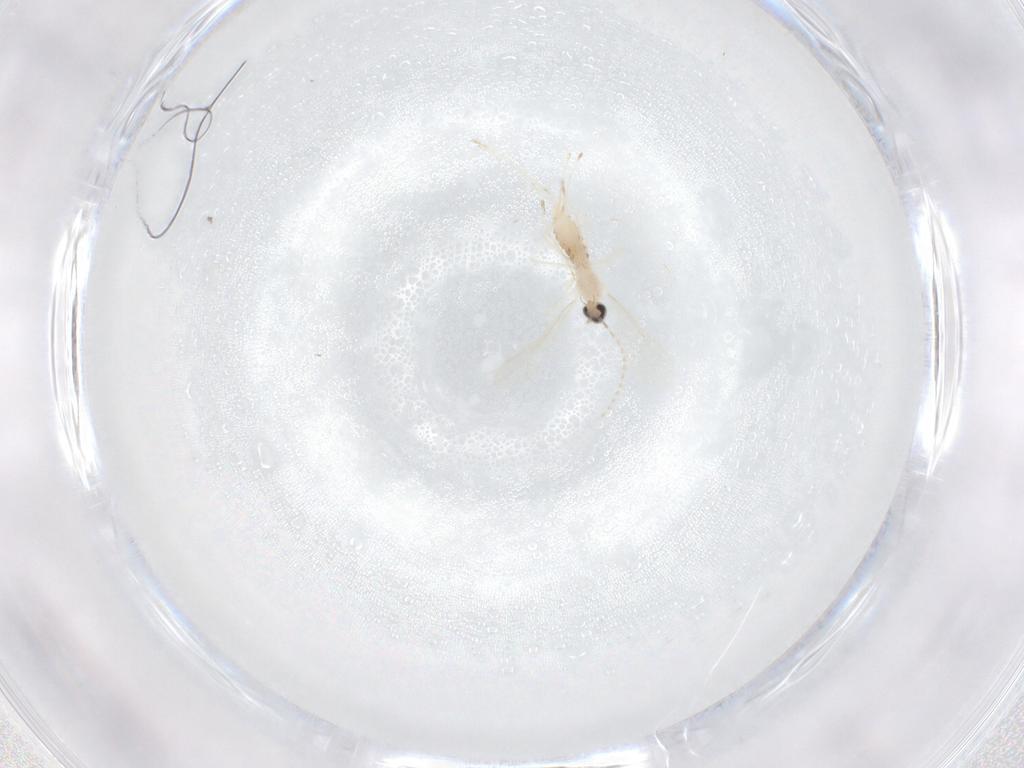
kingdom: Animalia
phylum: Arthropoda
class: Insecta
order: Diptera
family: Cecidomyiidae
